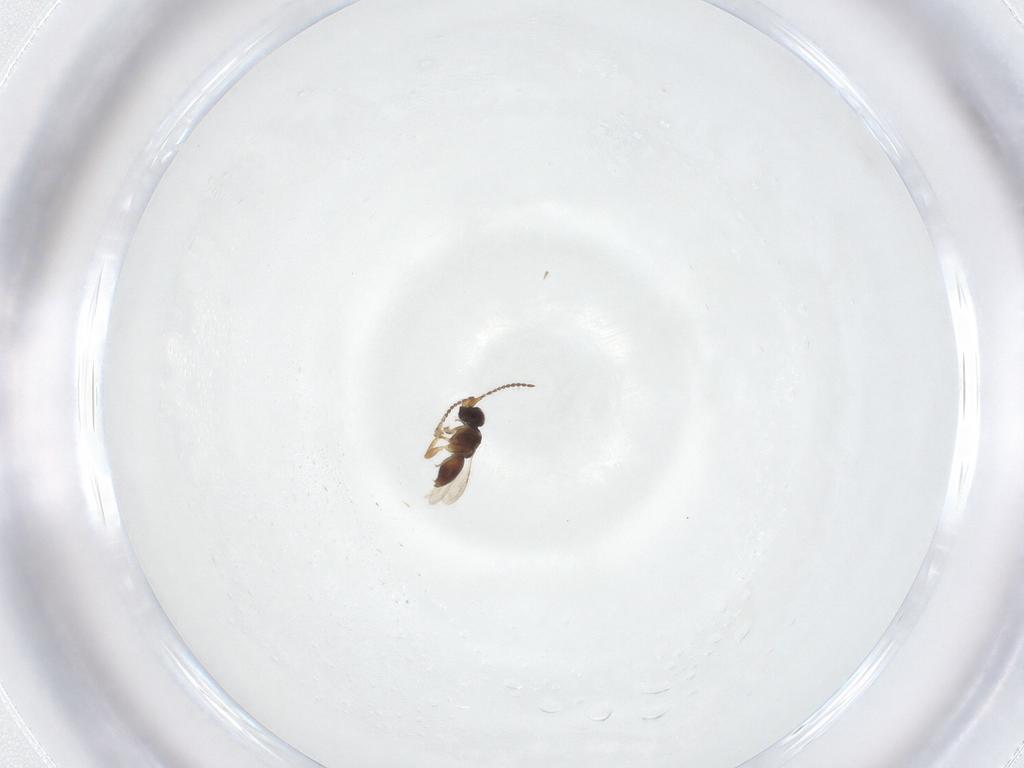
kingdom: Animalia
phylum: Arthropoda
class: Insecta
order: Hymenoptera
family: Ceraphronidae
